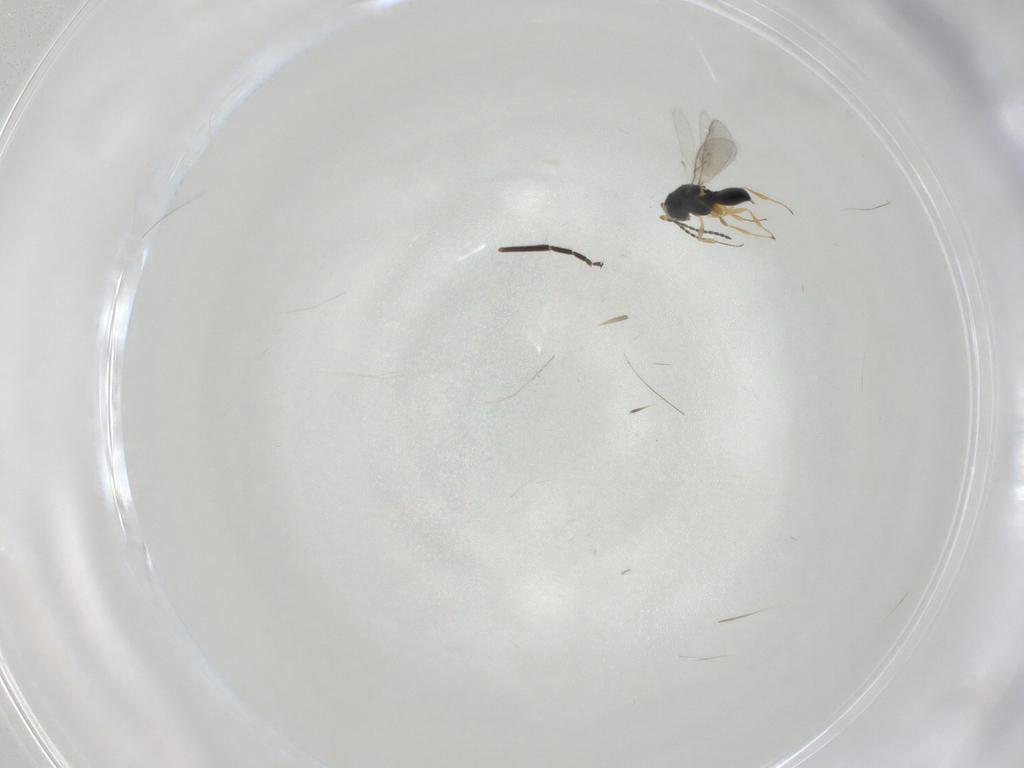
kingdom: Animalia
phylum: Arthropoda
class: Insecta
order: Hymenoptera
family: Scelionidae
